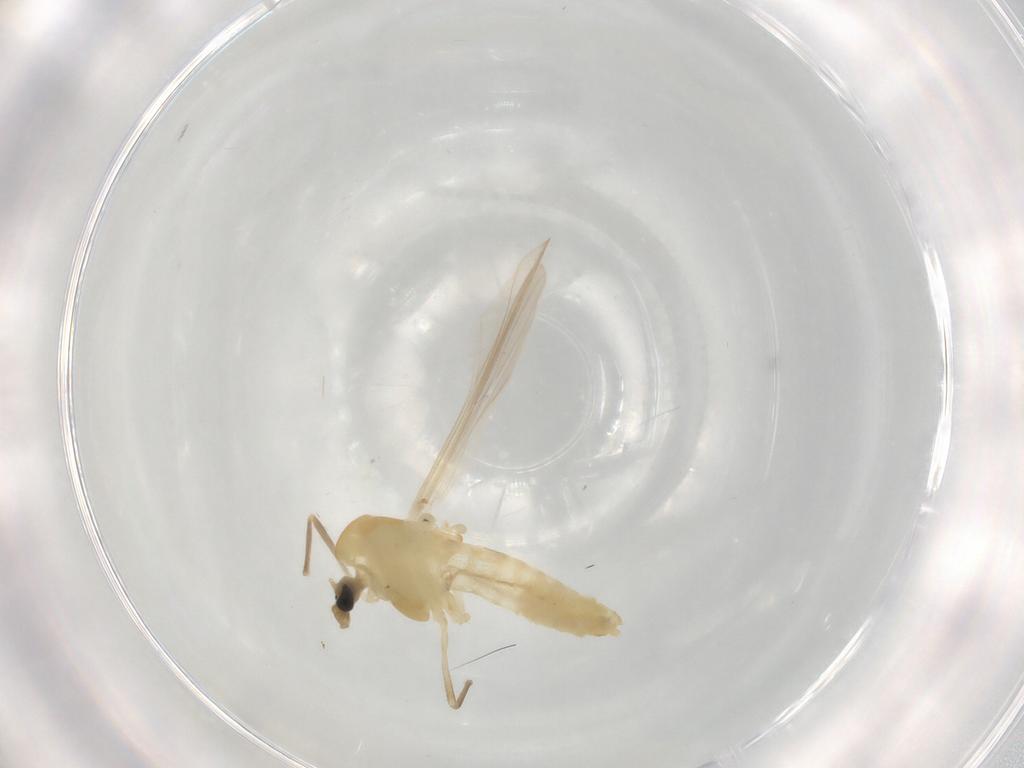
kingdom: Animalia
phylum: Arthropoda
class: Insecta
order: Diptera
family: Chironomidae
